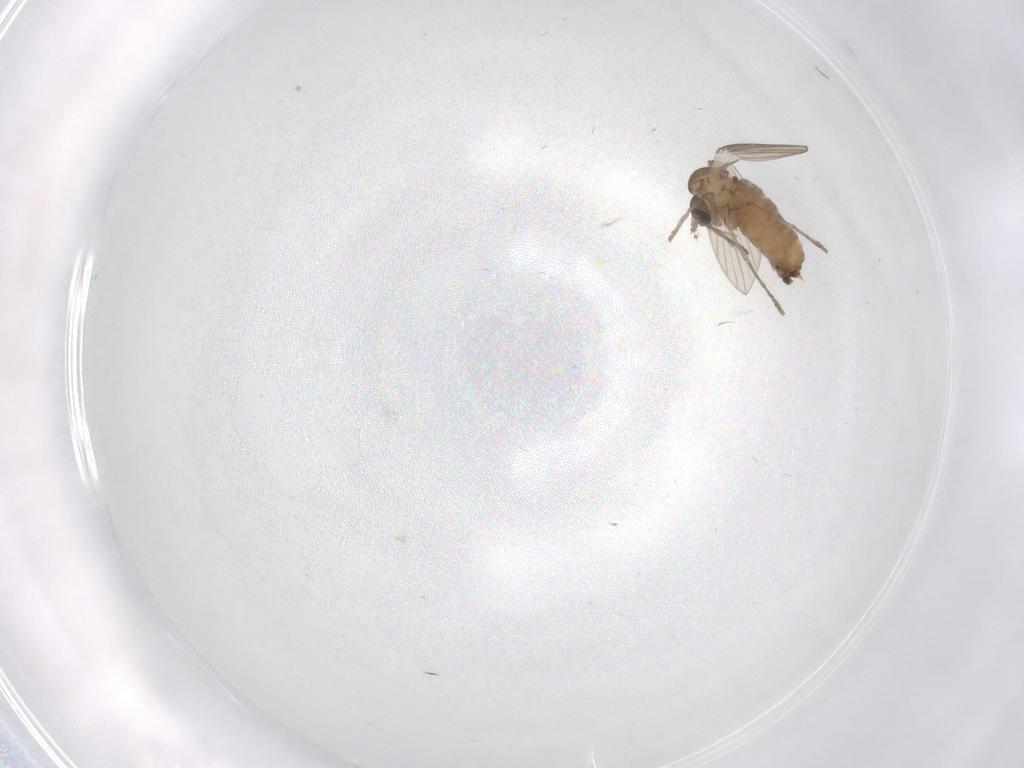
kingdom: Animalia
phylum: Arthropoda
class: Insecta
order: Diptera
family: Psychodidae
